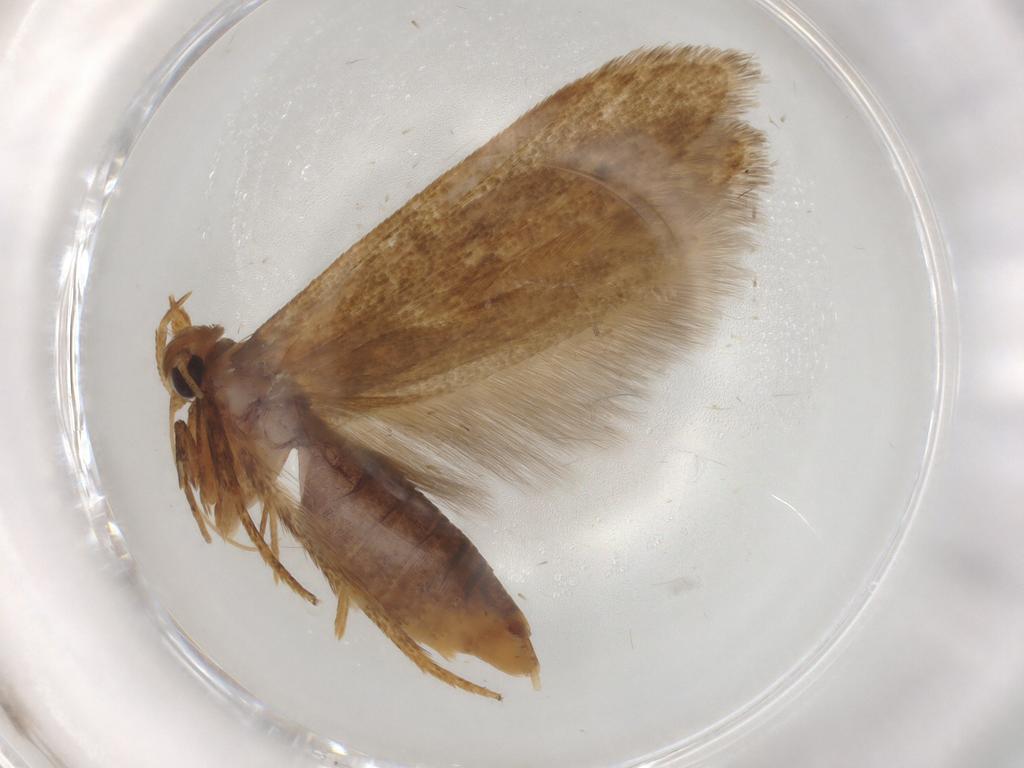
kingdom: Animalia
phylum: Arthropoda
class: Insecta
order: Lepidoptera
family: Blastobasidae
